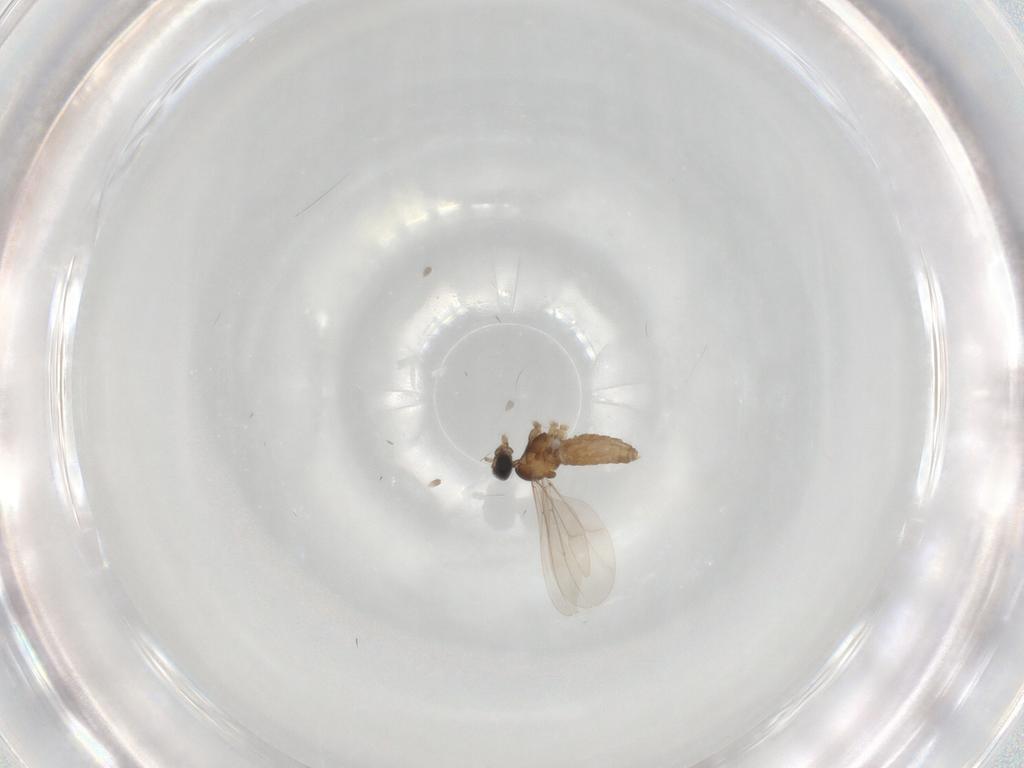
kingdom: Animalia
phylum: Arthropoda
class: Insecta
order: Diptera
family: Cecidomyiidae
